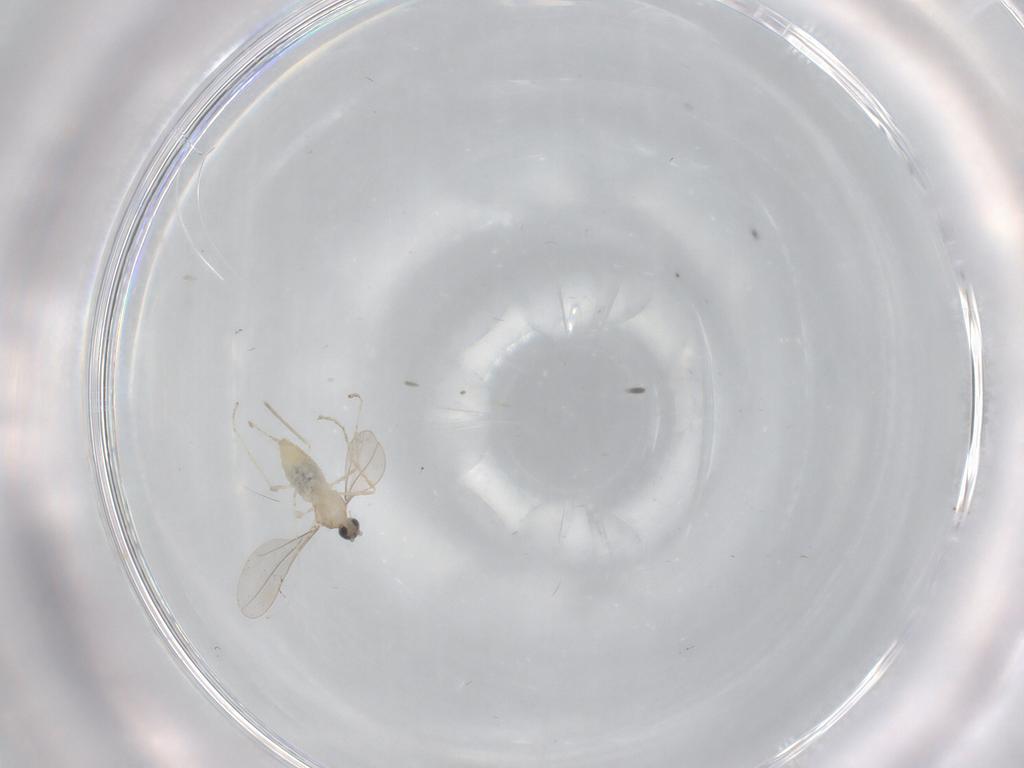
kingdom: Animalia
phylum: Arthropoda
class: Insecta
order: Diptera
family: Cecidomyiidae
